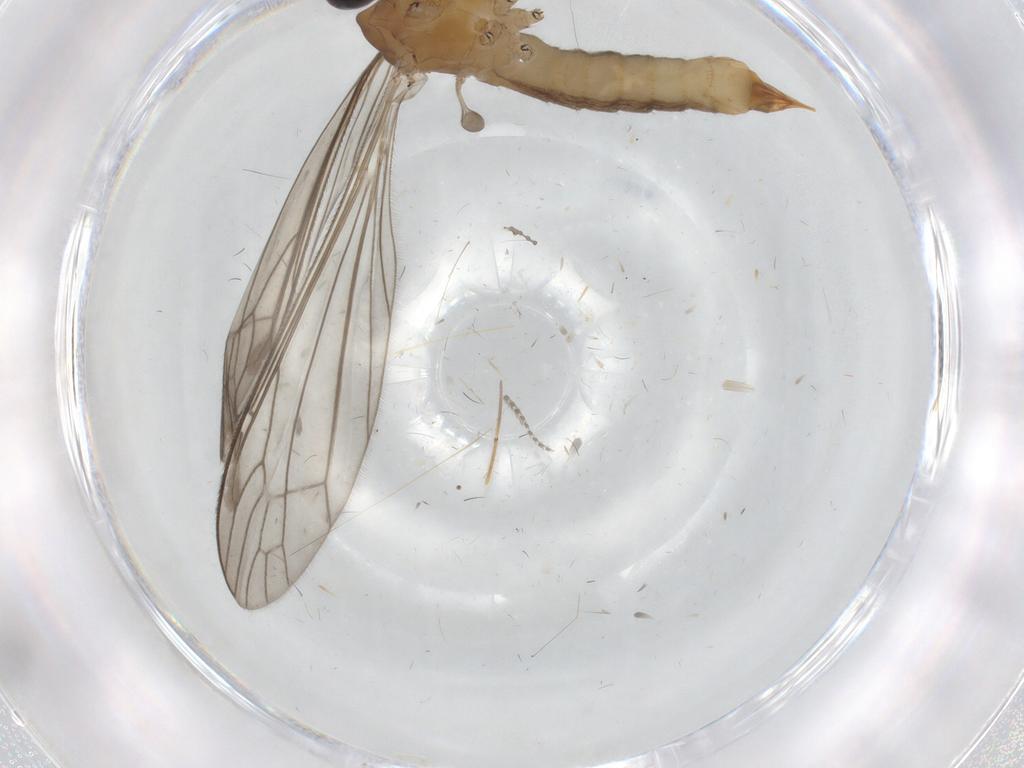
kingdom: Animalia
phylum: Arthropoda
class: Insecta
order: Diptera
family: Limoniidae
